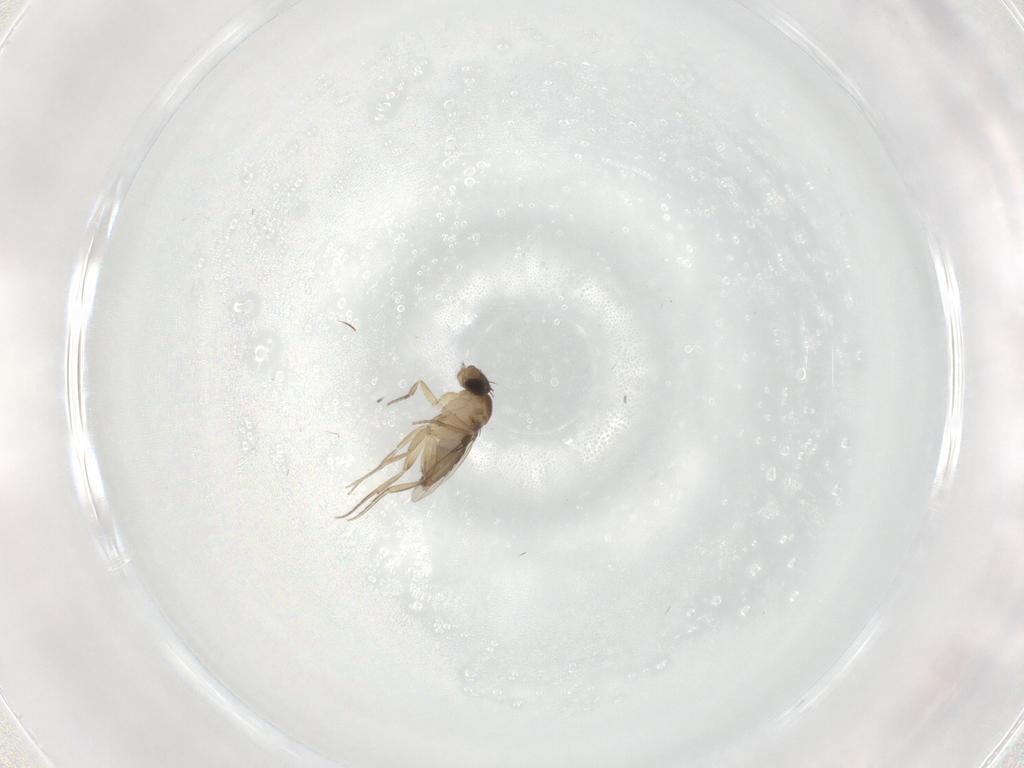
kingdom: Animalia
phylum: Arthropoda
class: Insecta
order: Diptera
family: Phoridae
